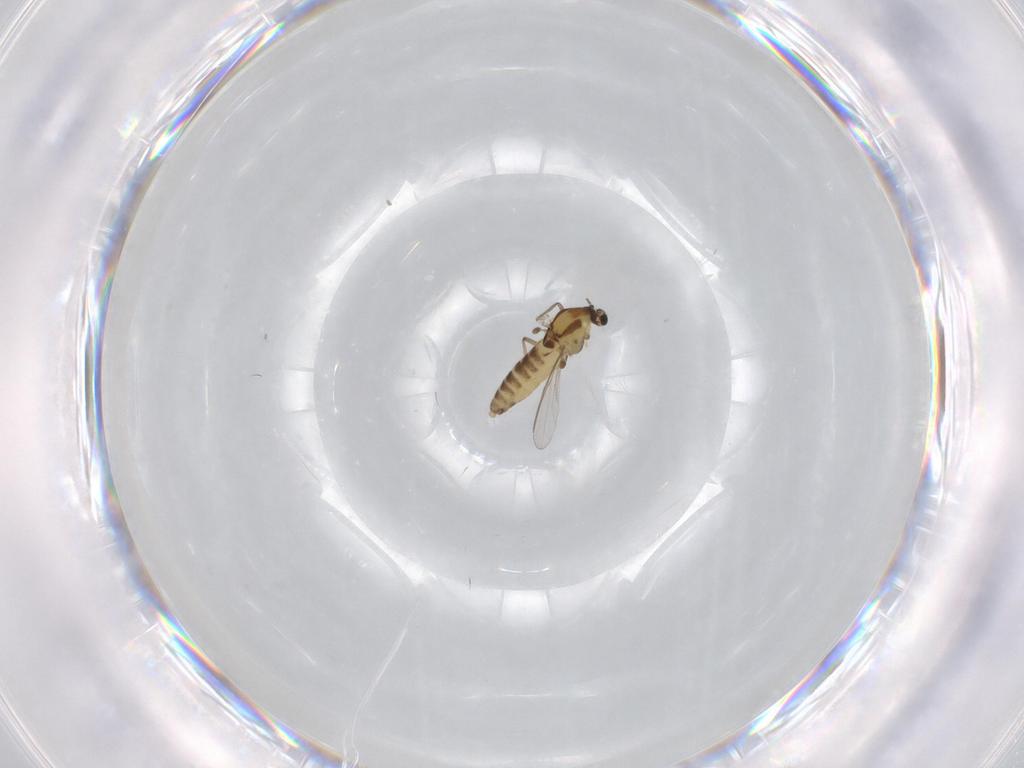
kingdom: Animalia
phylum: Arthropoda
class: Insecta
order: Diptera
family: Chironomidae
